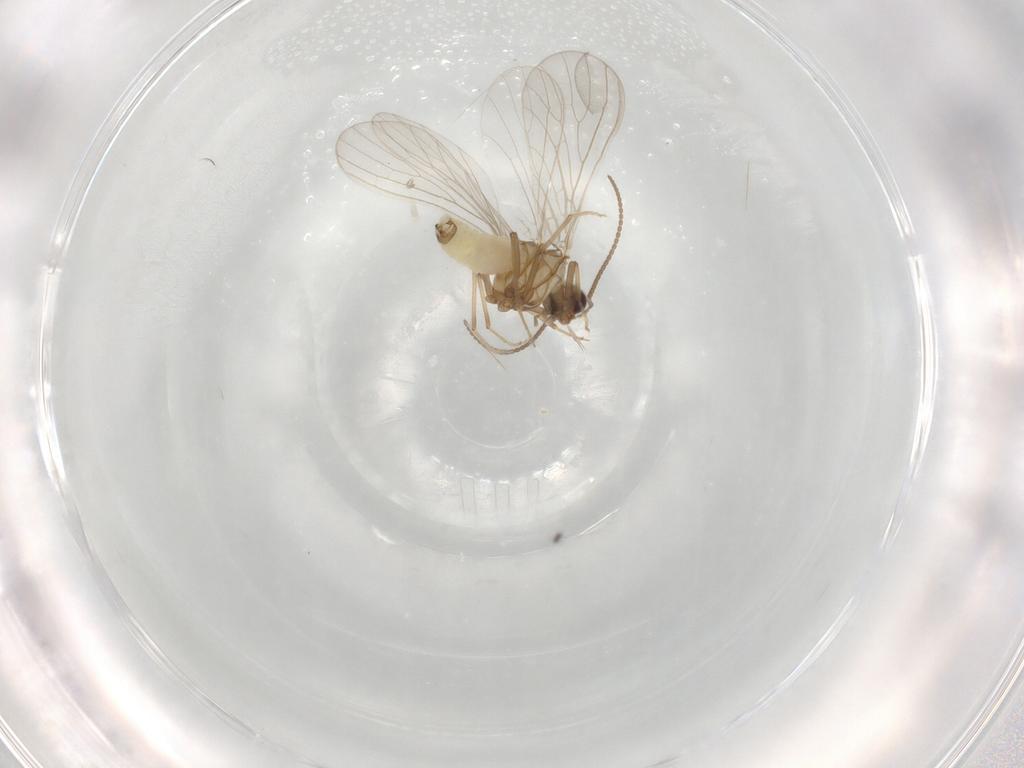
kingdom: Animalia
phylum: Arthropoda
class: Insecta
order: Neuroptera
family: Coniopterygidae
